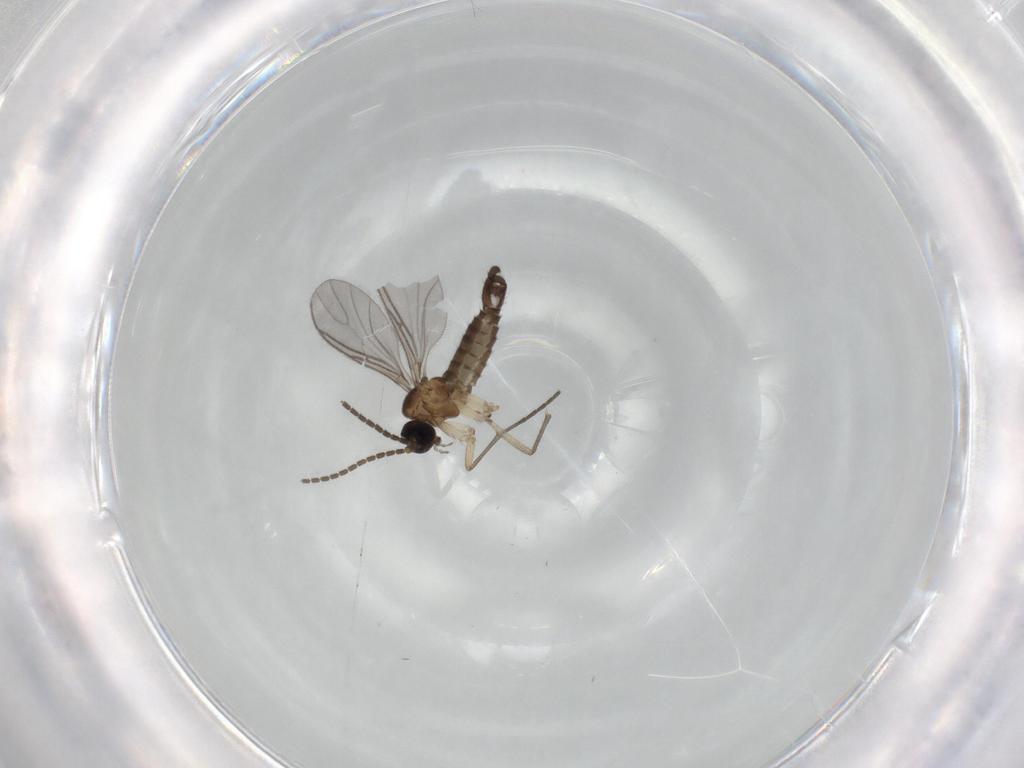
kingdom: Animalia
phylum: Arthropoda
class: Insecta
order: Diptera
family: Sciaridae
